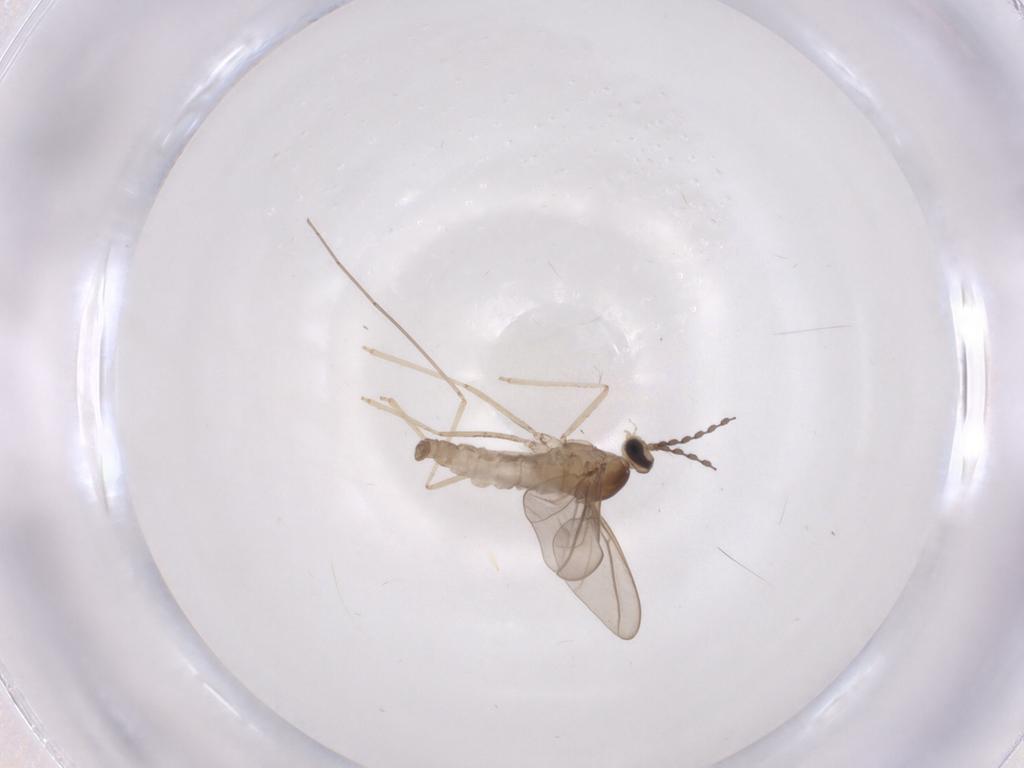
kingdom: Animalia
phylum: Arthropoda
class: Insecta
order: Diptera
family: Cecidomyiidae
